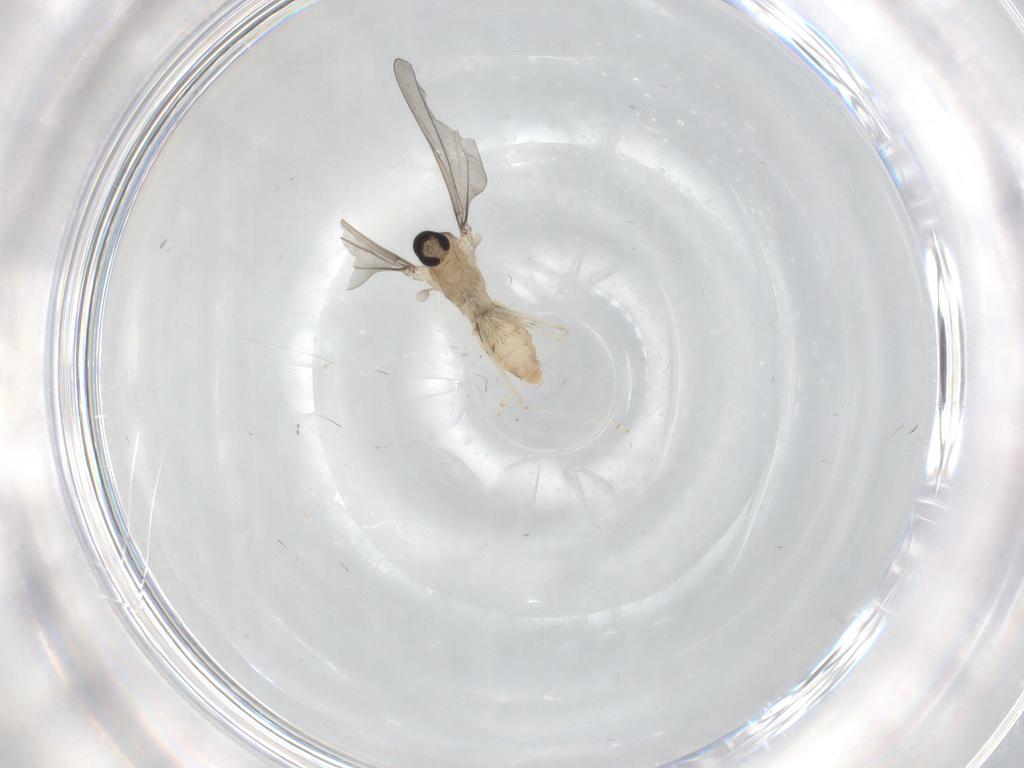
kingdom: Animalia
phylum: Arthropoda
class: Insecta
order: Diptera
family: Cecidomyiidae
